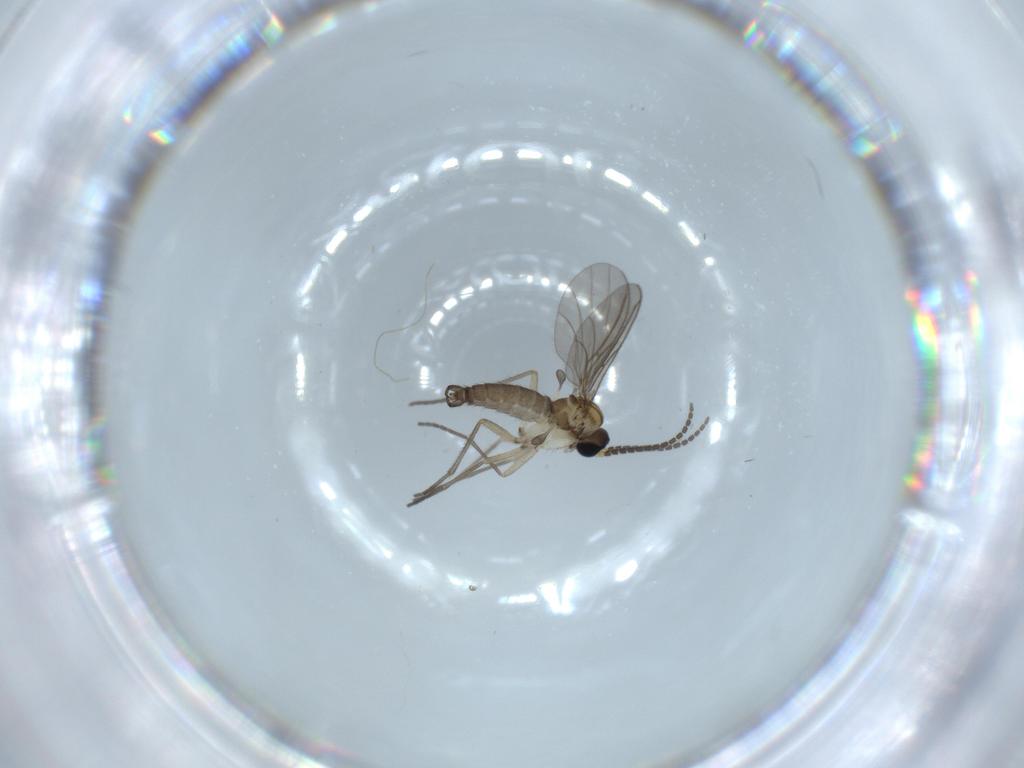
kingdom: Animalia
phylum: Arthropoda
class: Insecta
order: Diptera
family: Sciaridae
